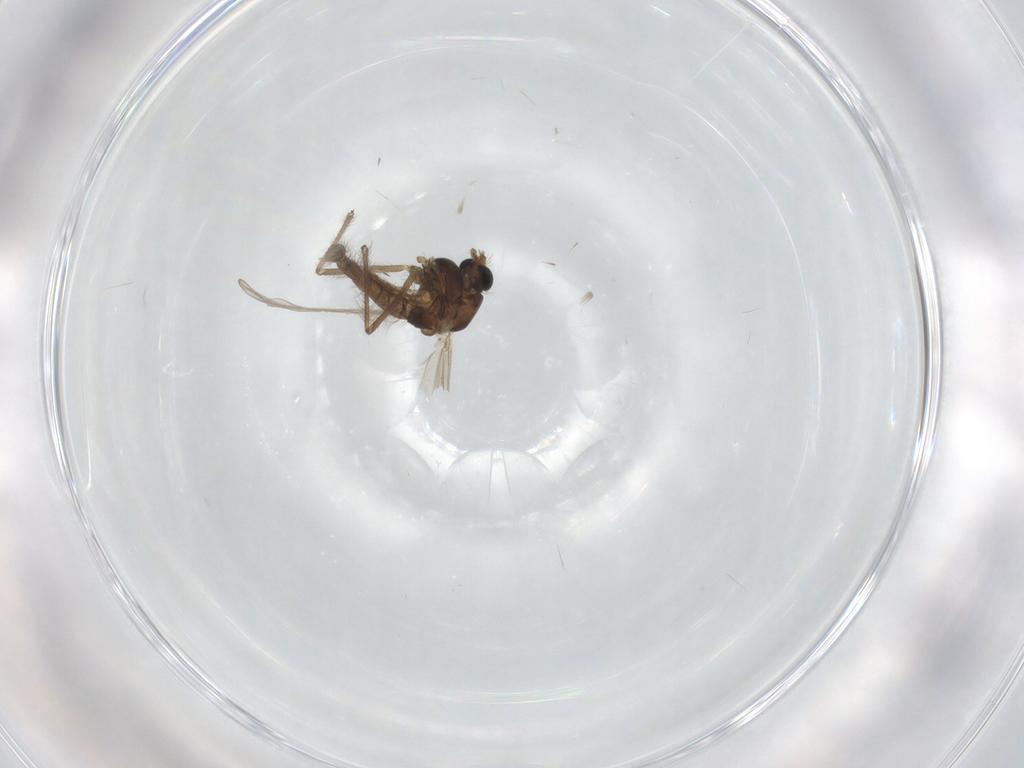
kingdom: Animalia
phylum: Arthropoda
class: Insecta
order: Diptera
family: Chironomidae
